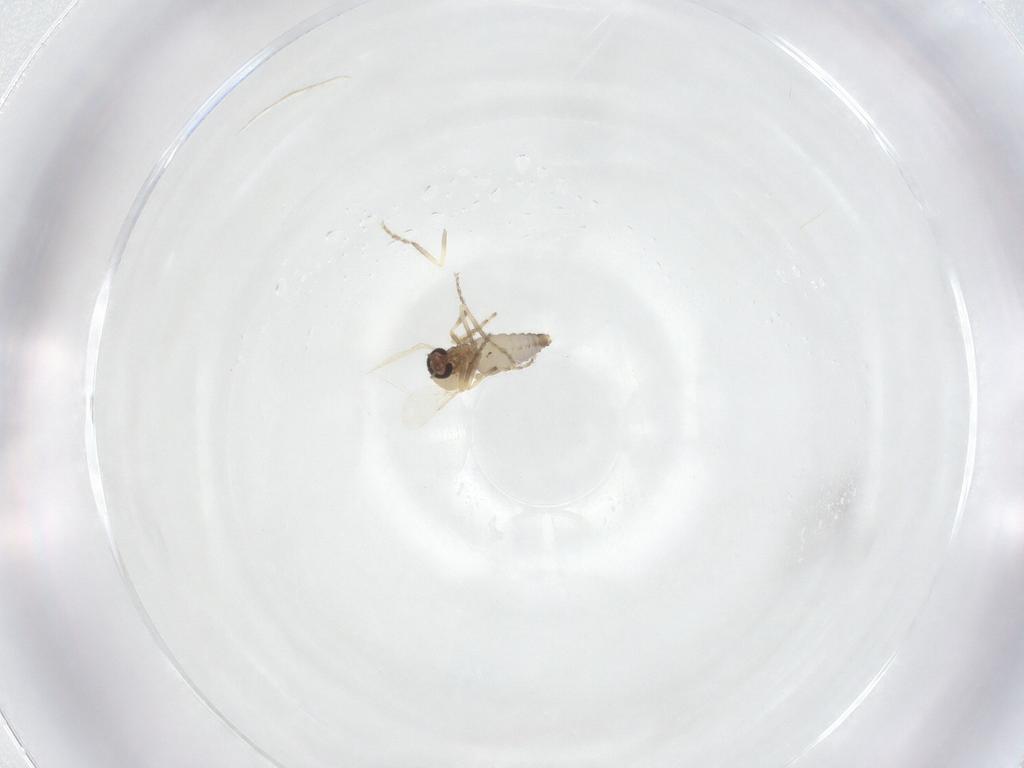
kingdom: Animalia
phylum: Arthropoda
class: Insecta
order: Diptera
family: Ceratopogonidae
